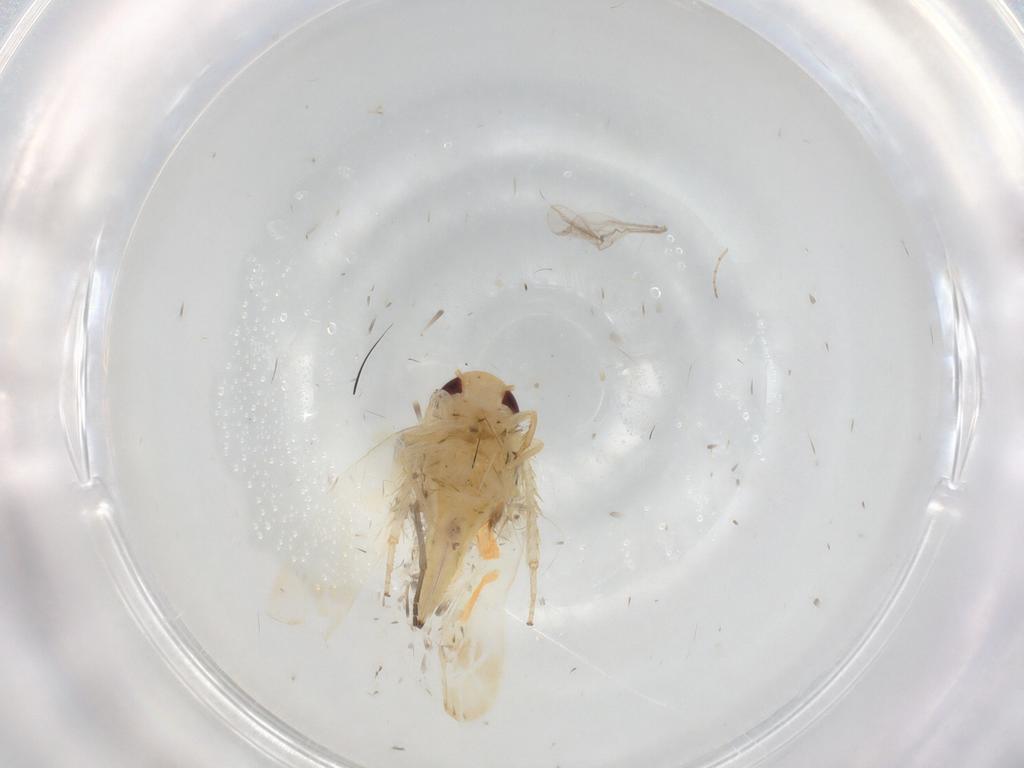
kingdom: Animalia
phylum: Arthropoda
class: Insecta
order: Hemiptera
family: Cicadellidae
